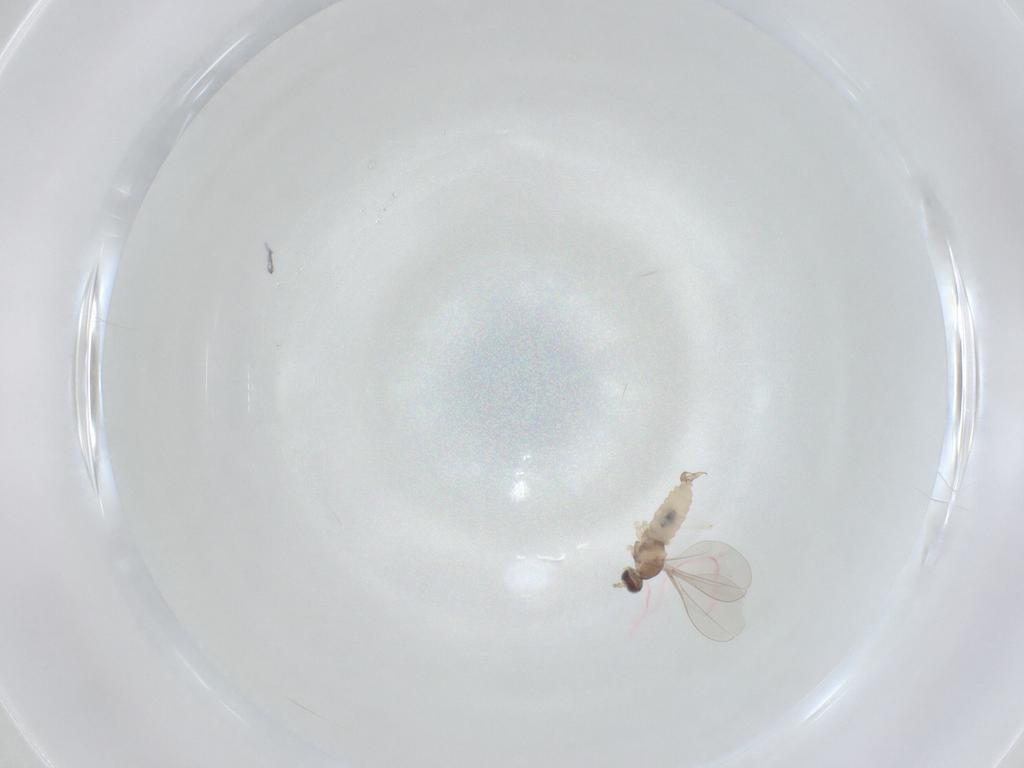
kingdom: Animalia
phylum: Arthropoda
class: Insecta
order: Diptera
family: Cecidomyiidae
